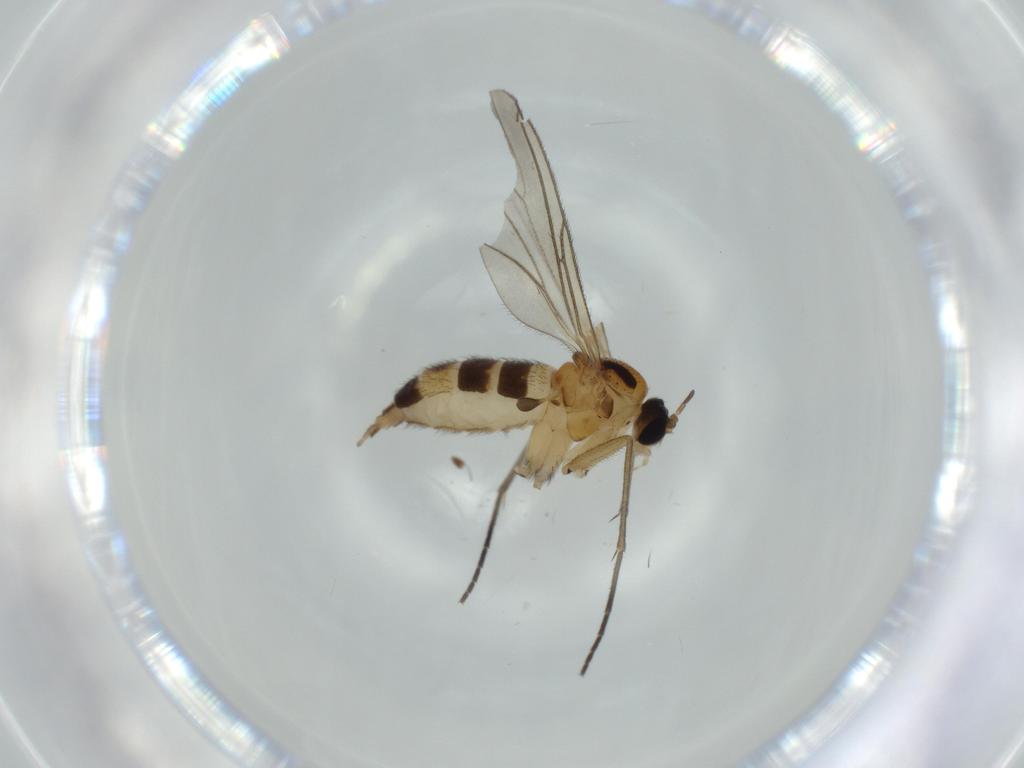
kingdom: Animalia
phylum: Arthropoda
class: Insecta
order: Diptera
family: Sciaridae
